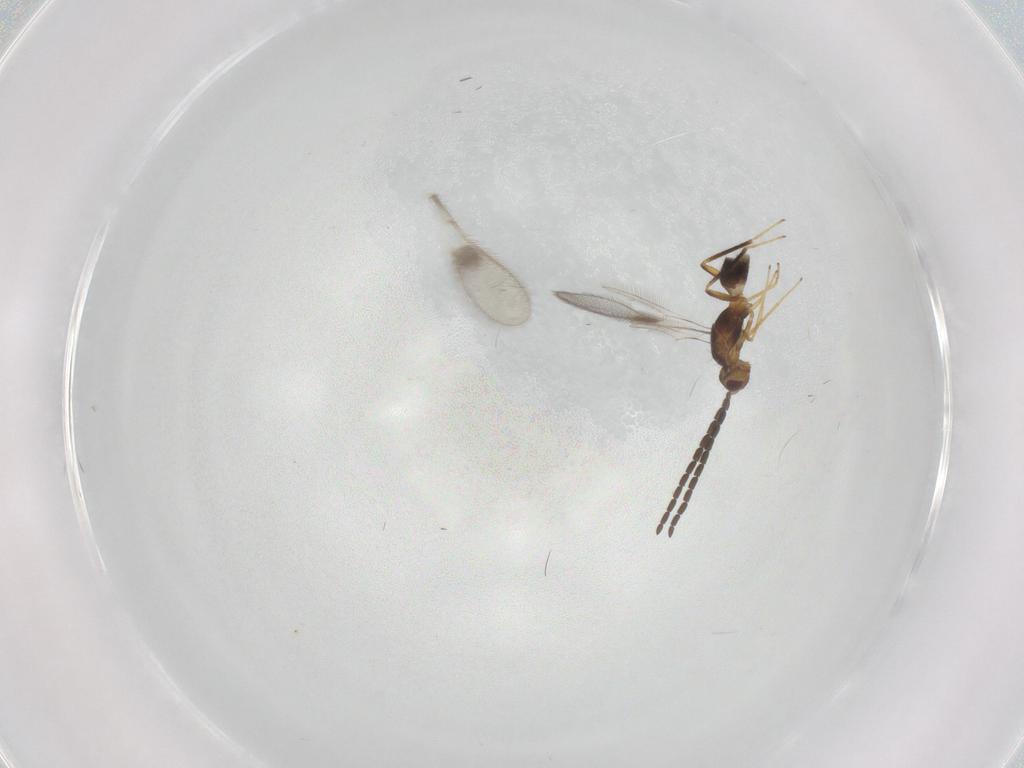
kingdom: Animalia
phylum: Arthropoda
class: Insecta
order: Hymenoptera
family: Mymaridae
